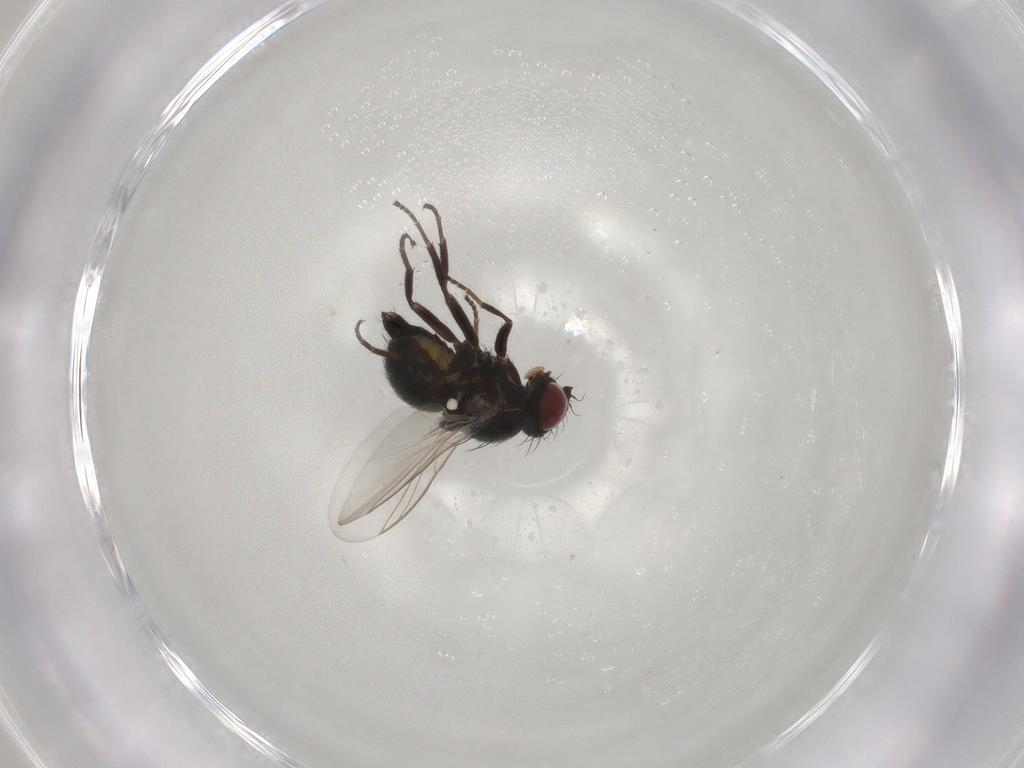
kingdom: Animalia
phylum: Arthropoda
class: Insecta
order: Diptera
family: Agromyzidae
